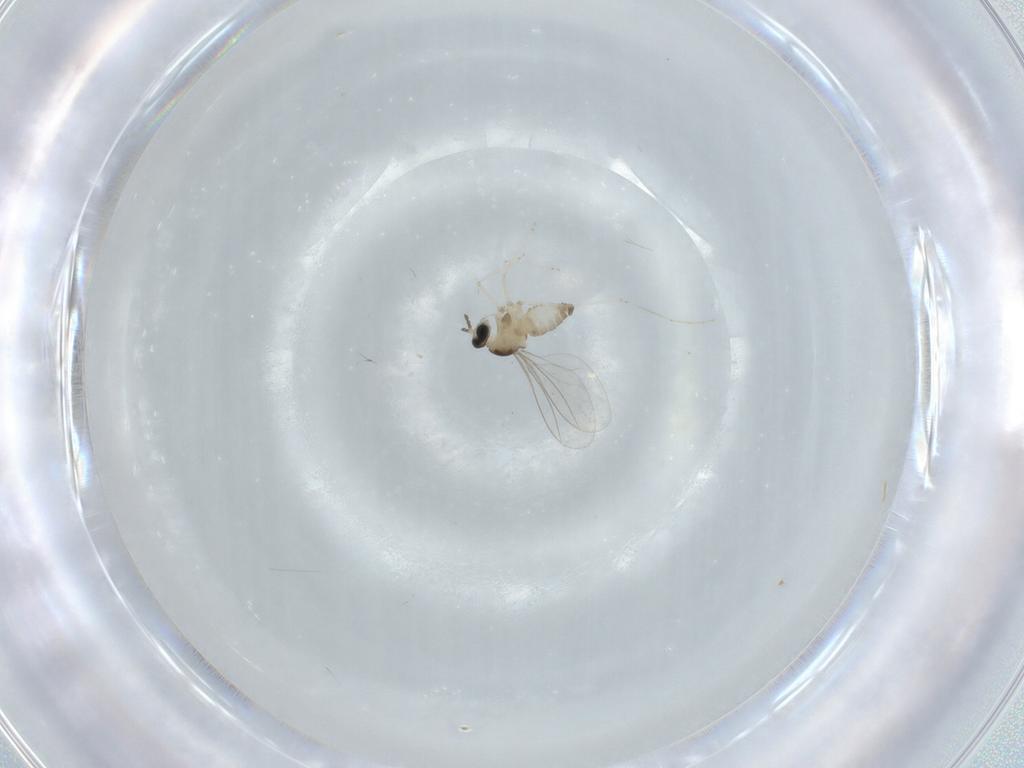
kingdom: Animalia
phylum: Arthropoda
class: Insecta
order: Diptera
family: Cecidomyiidae
